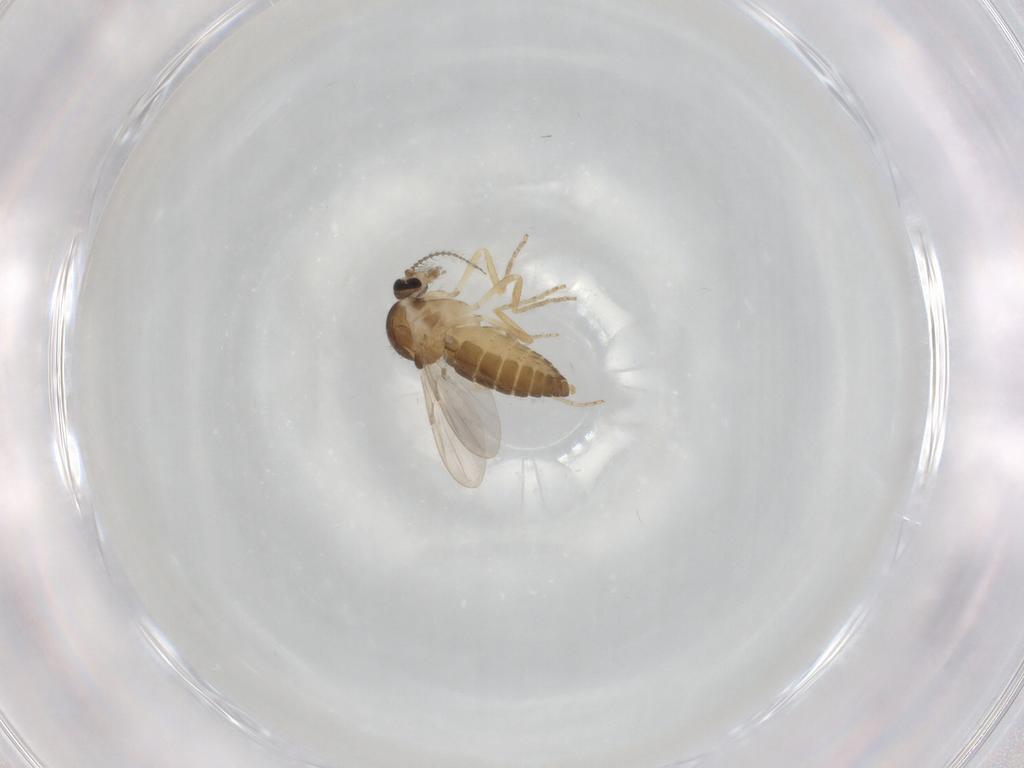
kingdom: Animalia
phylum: Arthropoda
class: Insecta
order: Diptera
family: Ceratopogonidae
